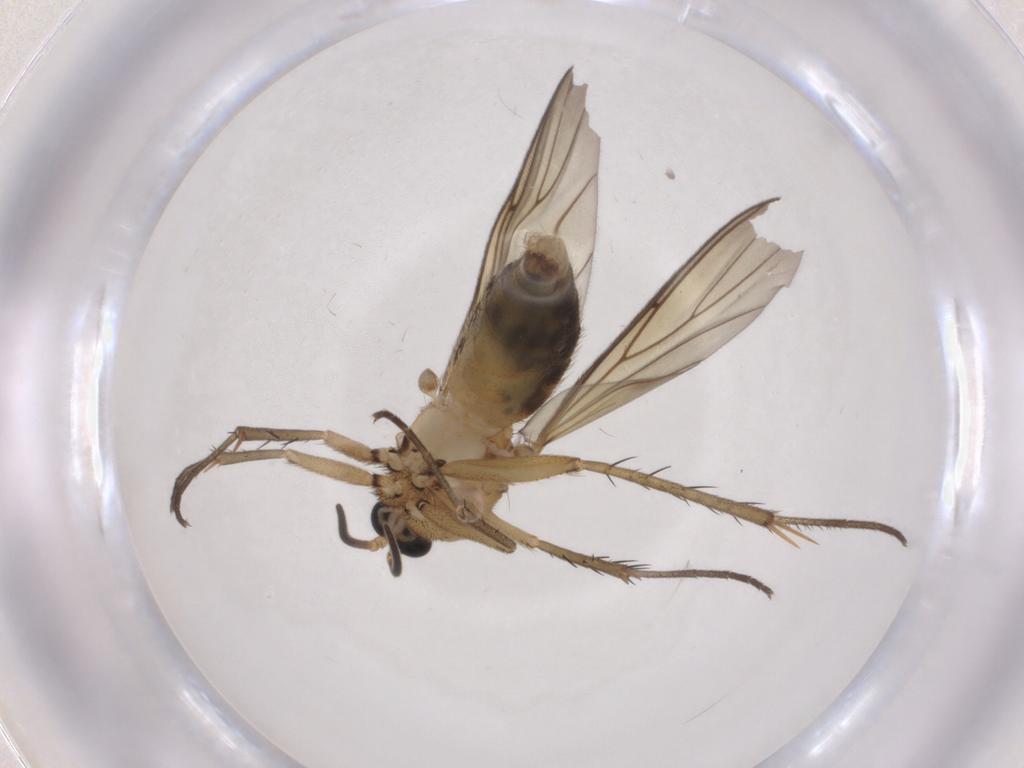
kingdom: Animalia
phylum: Arthropoda
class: Insecta
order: Diptera
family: Mycetophilidae
